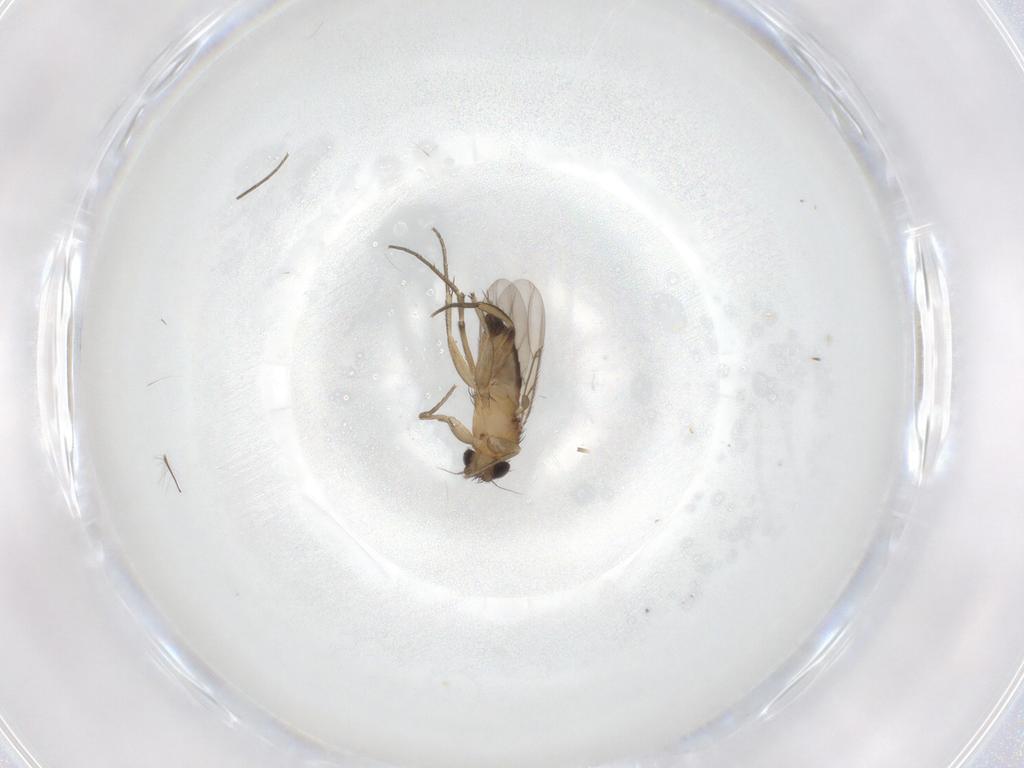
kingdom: Animalia
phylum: Arthropoda
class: Insecta
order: Diptera
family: Phoridae
